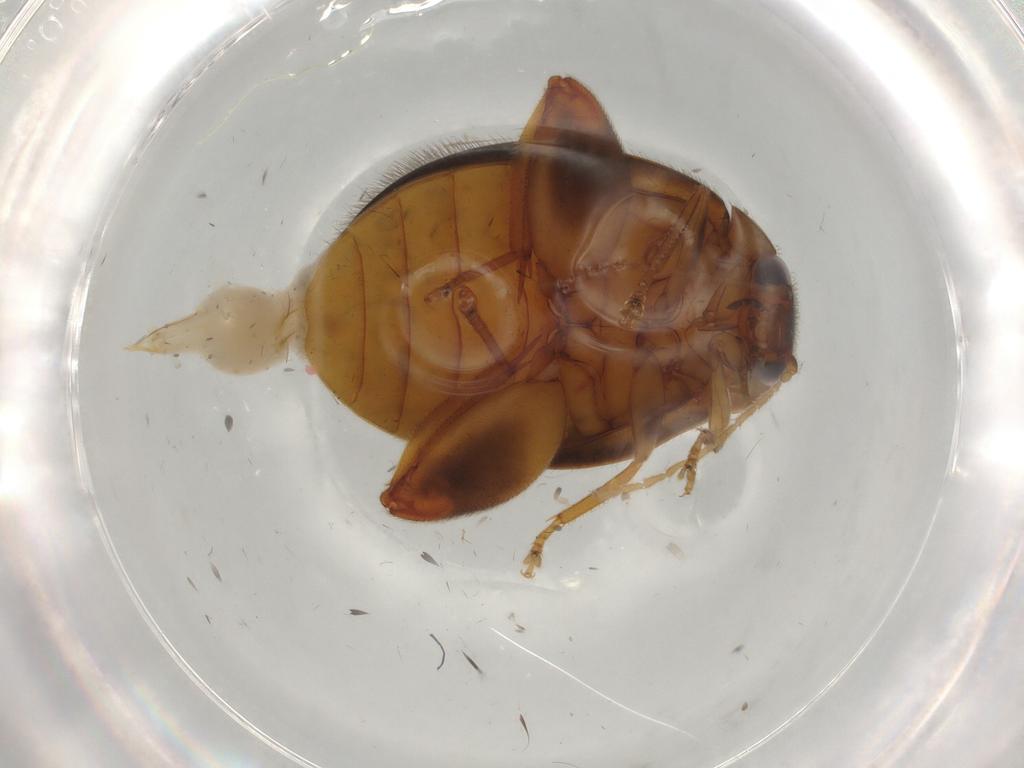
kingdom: Animalia
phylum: Arthropoda
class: Insecta
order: Coleoptera
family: Scirtidae
